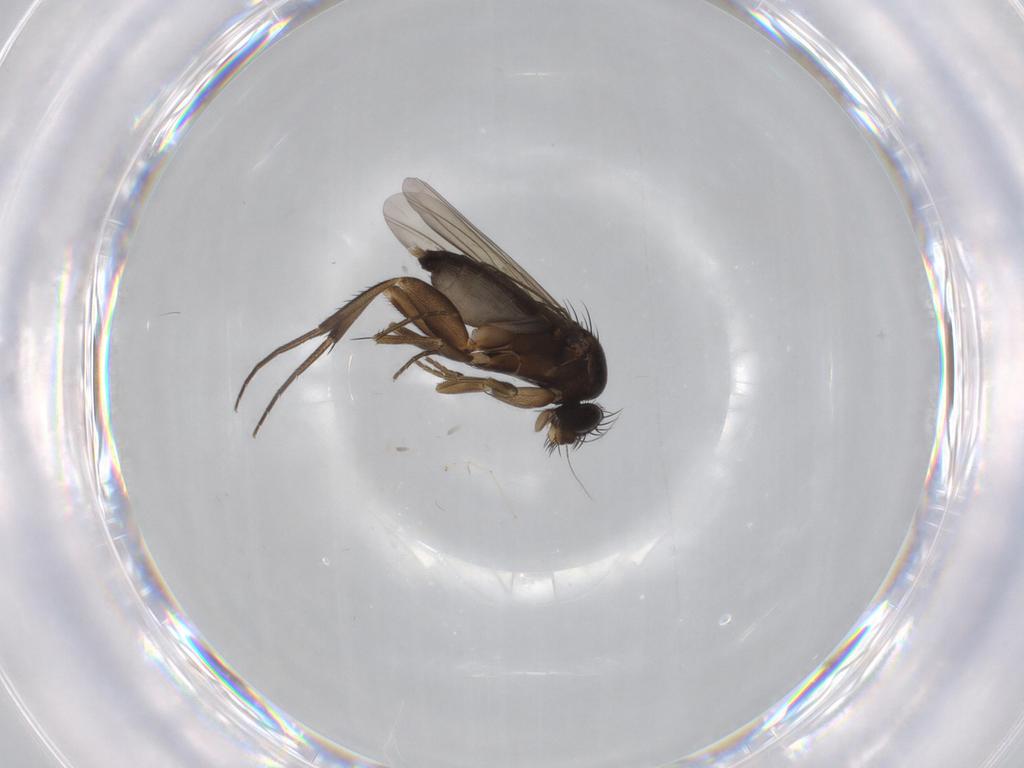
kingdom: Animalia
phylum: Arthropoda
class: Insecta
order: Diptera
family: Phoridae
